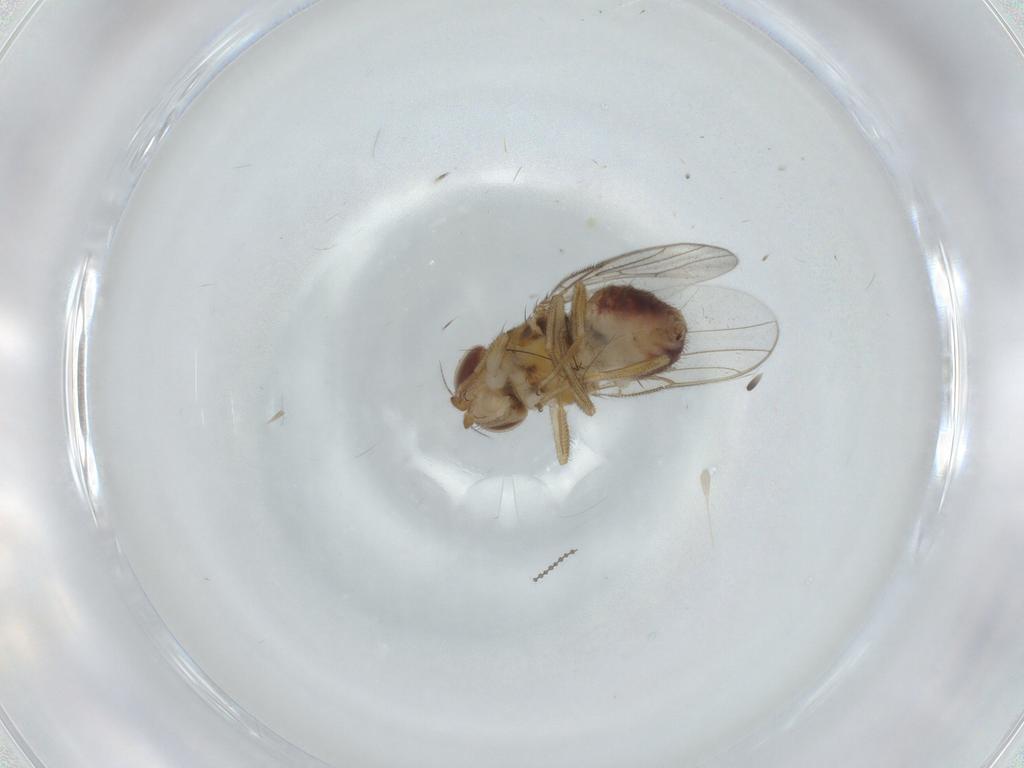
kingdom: Animalia
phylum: Arthropoda
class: Insecta
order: Diptera
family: Chloropidae
